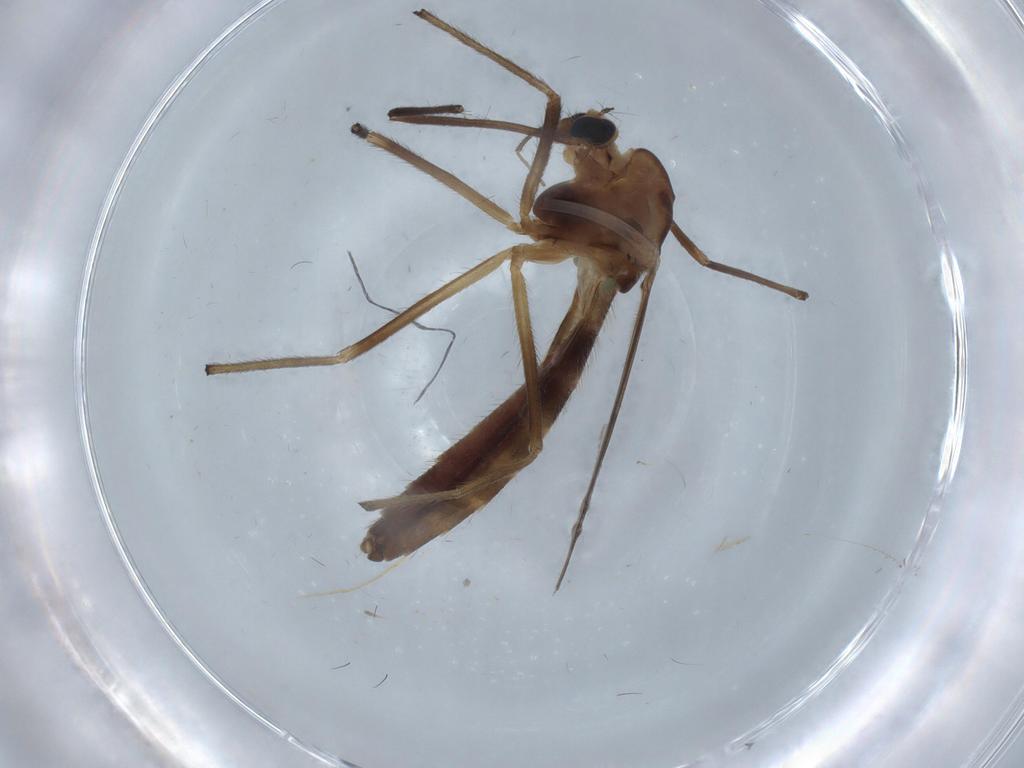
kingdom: Animalia
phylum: Arthropoda
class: Insecta
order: Diptera
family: Cecidomyiidae
